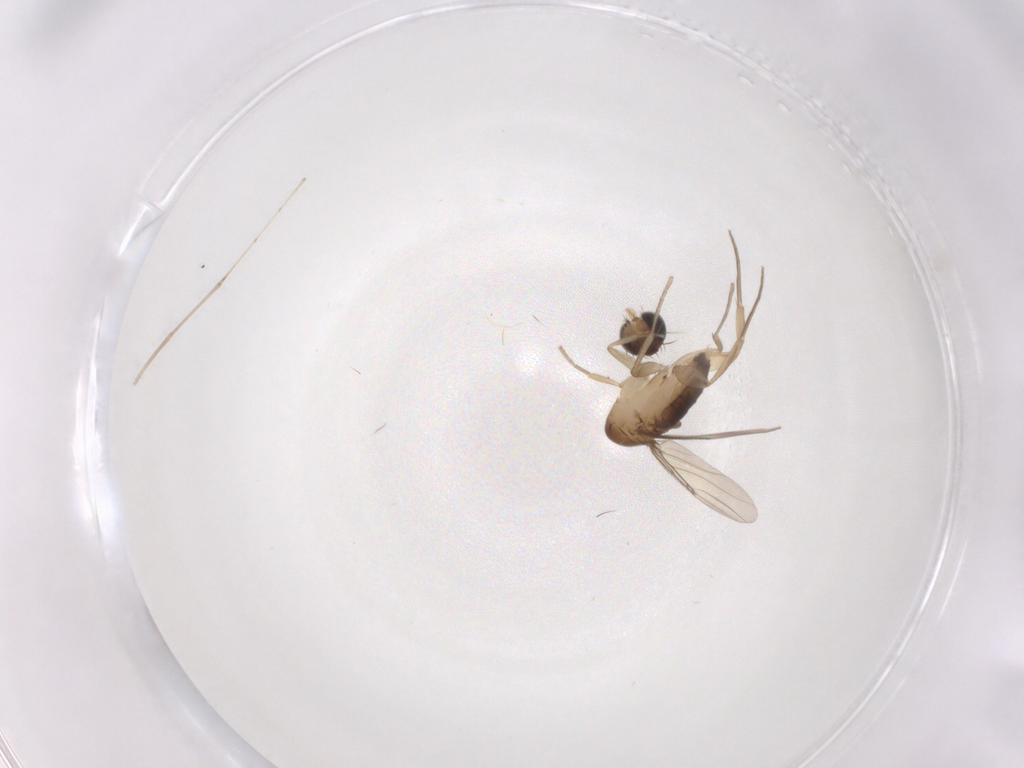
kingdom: Animalia
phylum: Arthropoda
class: Insecta
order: Diptera
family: Phoridae
